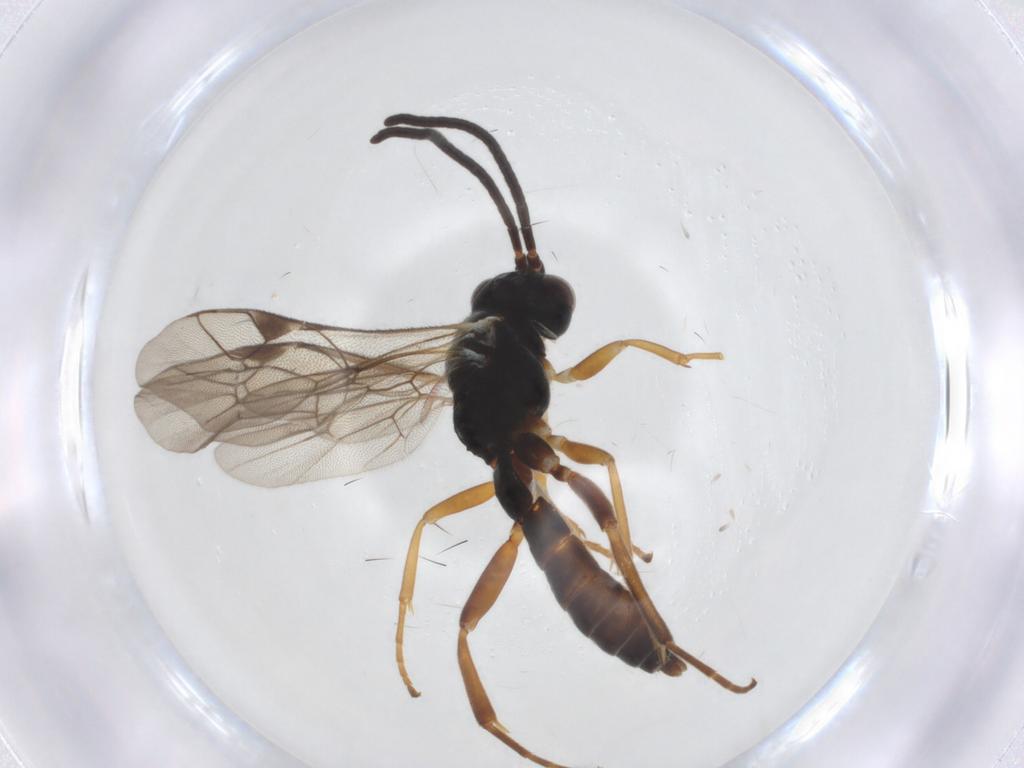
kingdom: Animalia
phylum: Arthropoda
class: Insecta
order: Hymenoptera
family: Ichneumonidae
